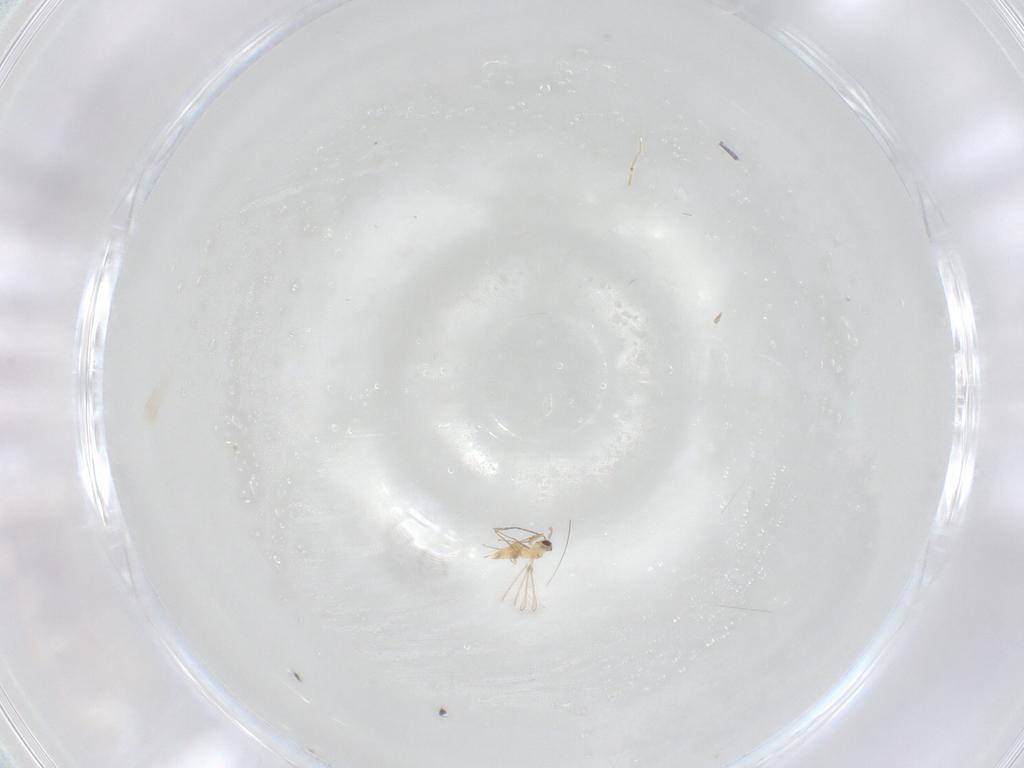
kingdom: Animalia
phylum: Arthropoda
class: Insecta
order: Hymenoptera
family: Mymaridae
